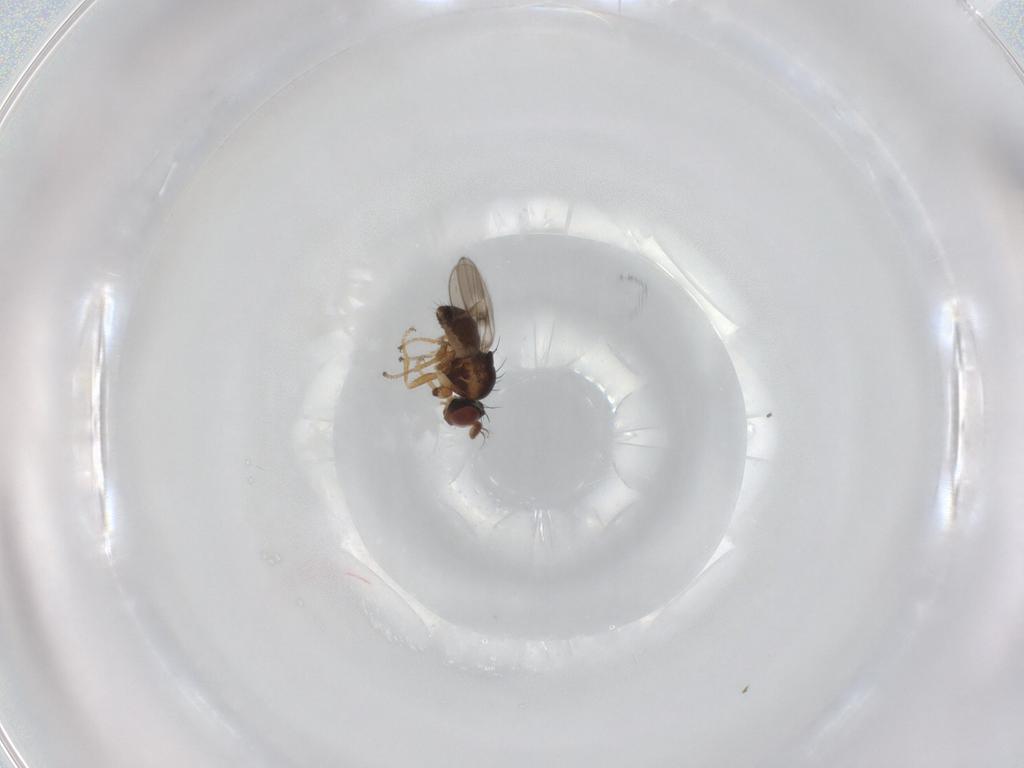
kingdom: Animalia
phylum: Arthropoda
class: Insecta
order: Diptera
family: Ephydridae
